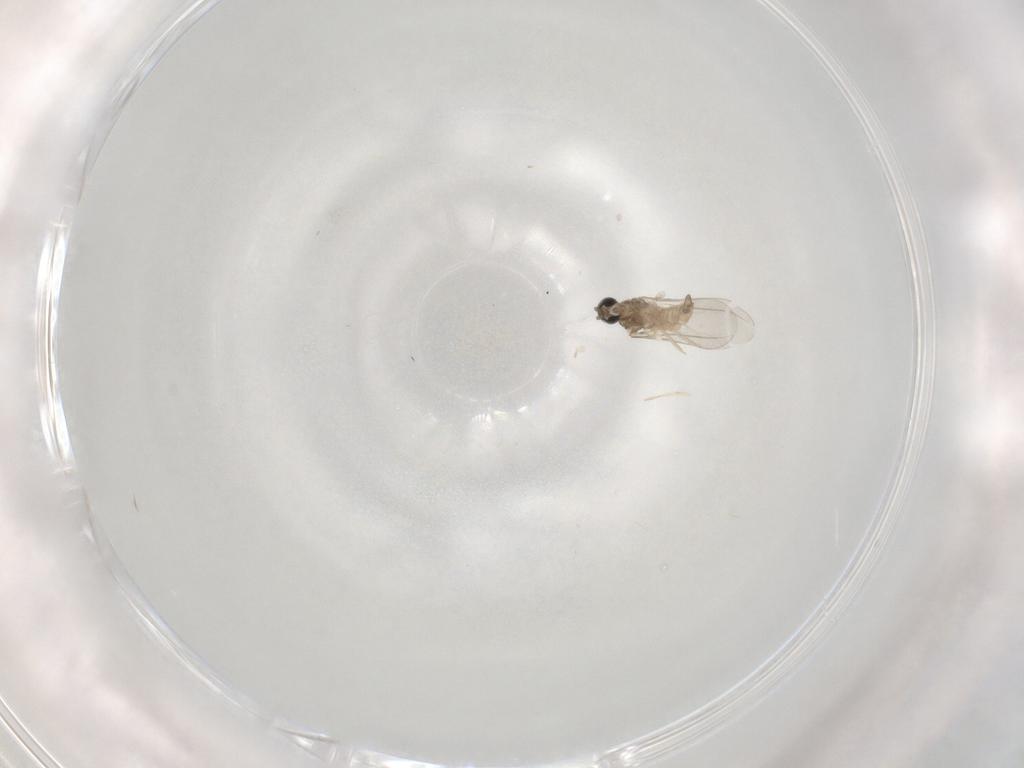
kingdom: Animalia
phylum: Arthropoda
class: Insecta
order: Diptera
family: Cecidomyiidae
